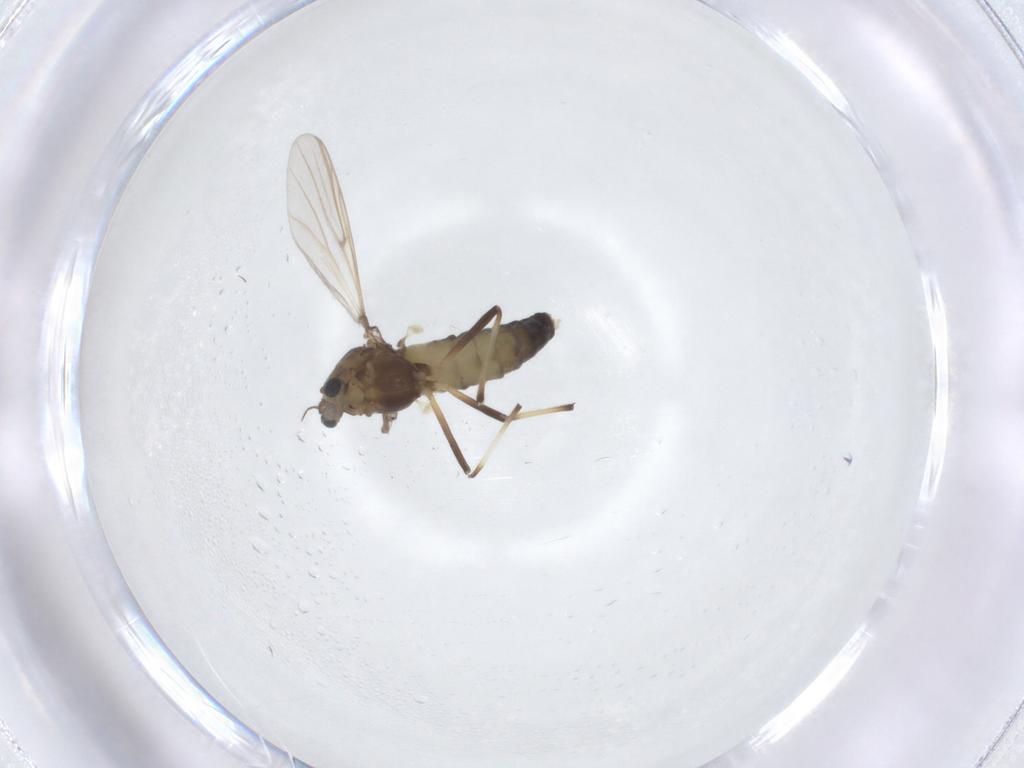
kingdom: Animalia
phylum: Arthropoda
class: Insecta
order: Diptera
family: Chironomidae
